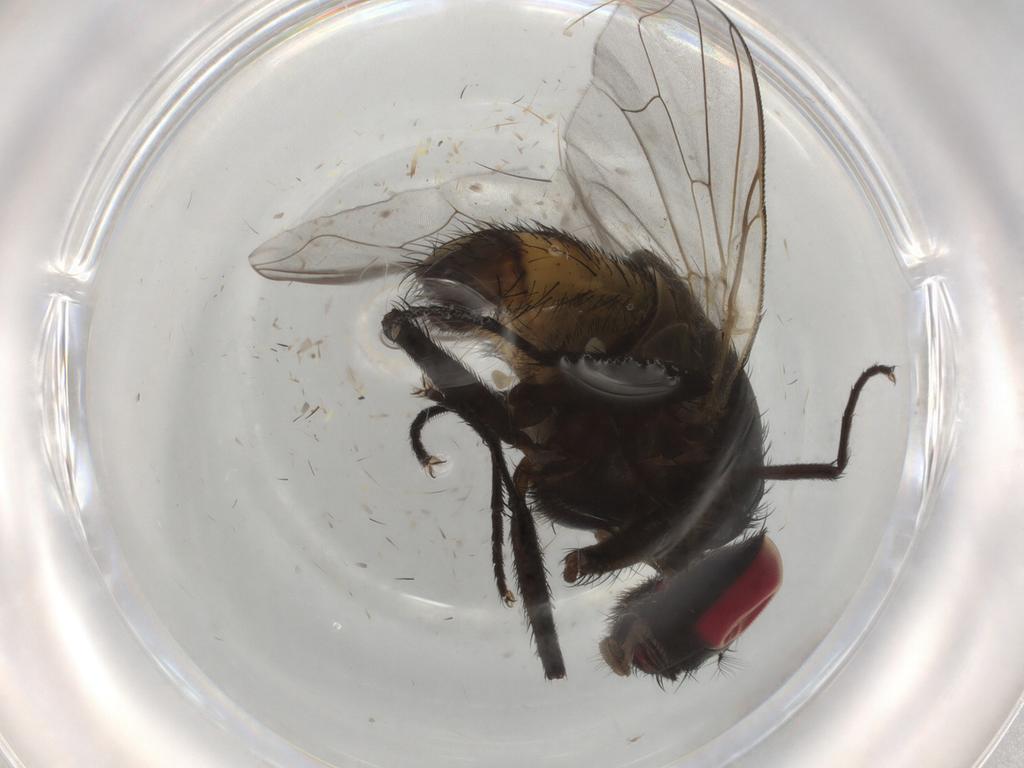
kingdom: Animalia
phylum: Arthropoda
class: Insecta
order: Diptera
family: Muscidae
